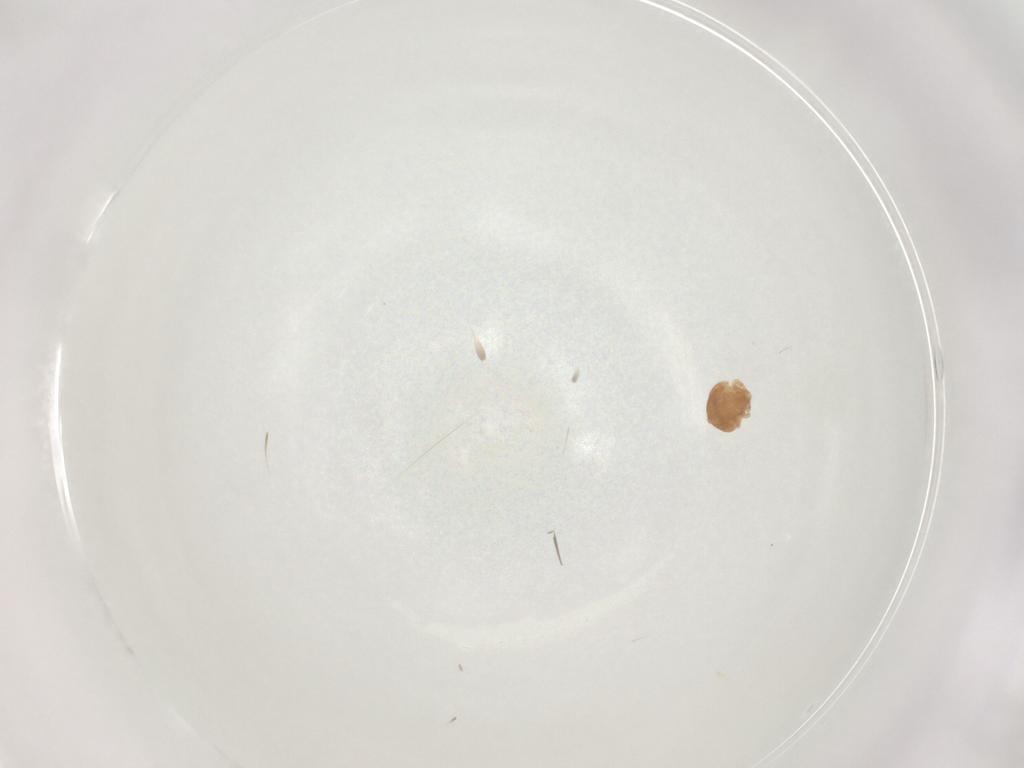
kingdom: Animalia
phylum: Arthropoda
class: Arachnida
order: Mesostigmata
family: Polyaspididae
